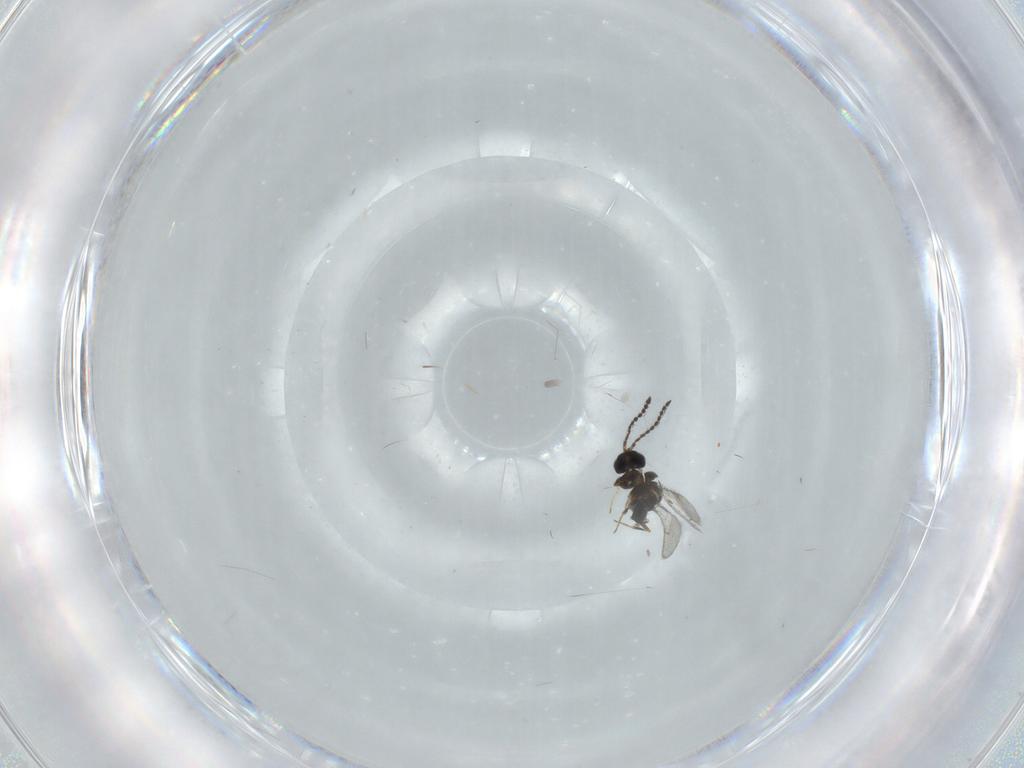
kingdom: Animalia
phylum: Arthropoda
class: Insecta
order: Hymenoptera
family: Scelionidae
